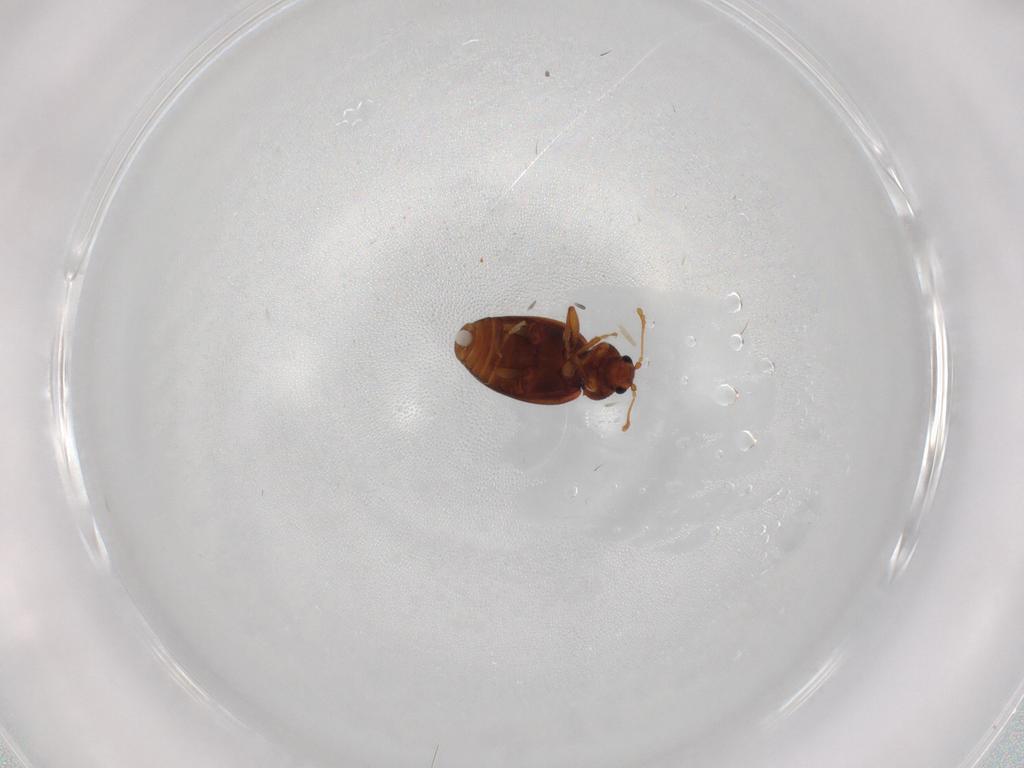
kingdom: Animalia
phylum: Arthropoda
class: Insecta
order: Coleoptera
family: Latridiidae
